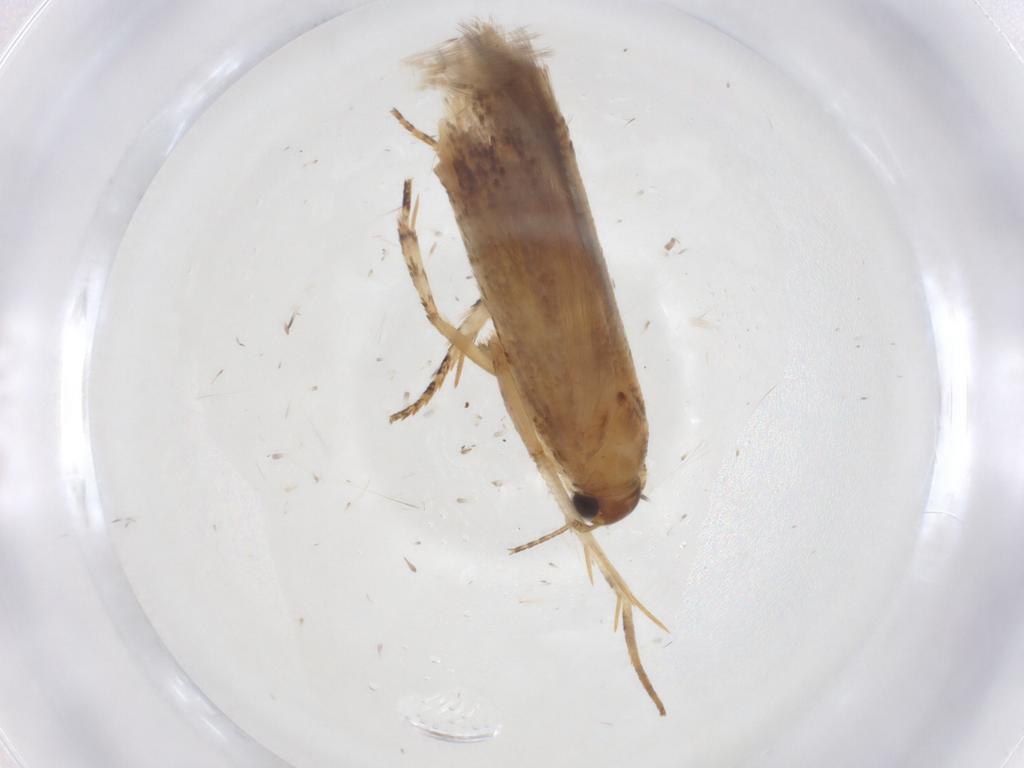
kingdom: Animalia
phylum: Arthropoda
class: Insecta
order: Lepidoptera
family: Gelechiidae
